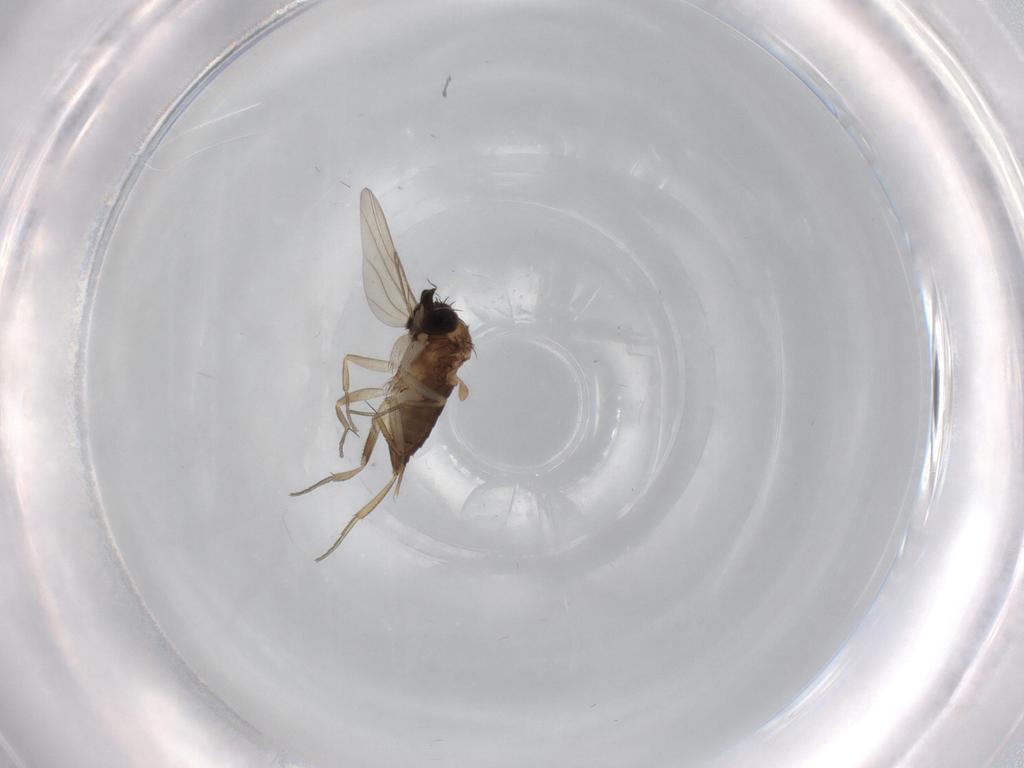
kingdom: Animalia
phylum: Arthropoda
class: Insecta
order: Diptera
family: Phoridae
